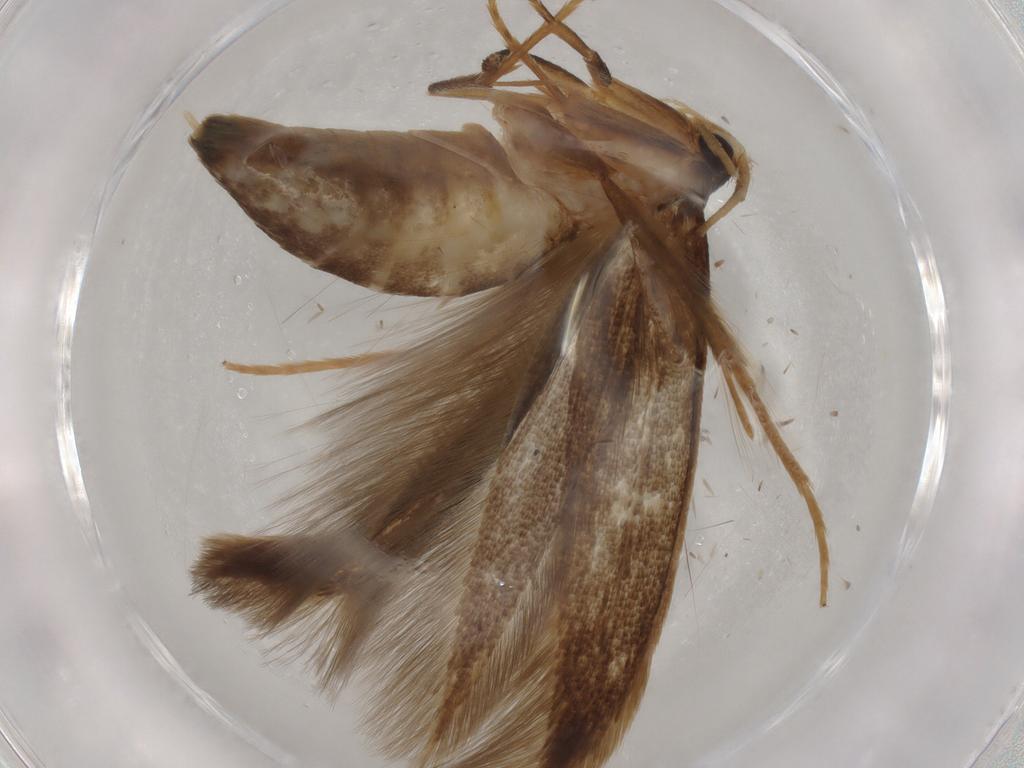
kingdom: Animalia
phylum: Arthropoda
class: Insecta
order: Lepidoptera
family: Tineidae
